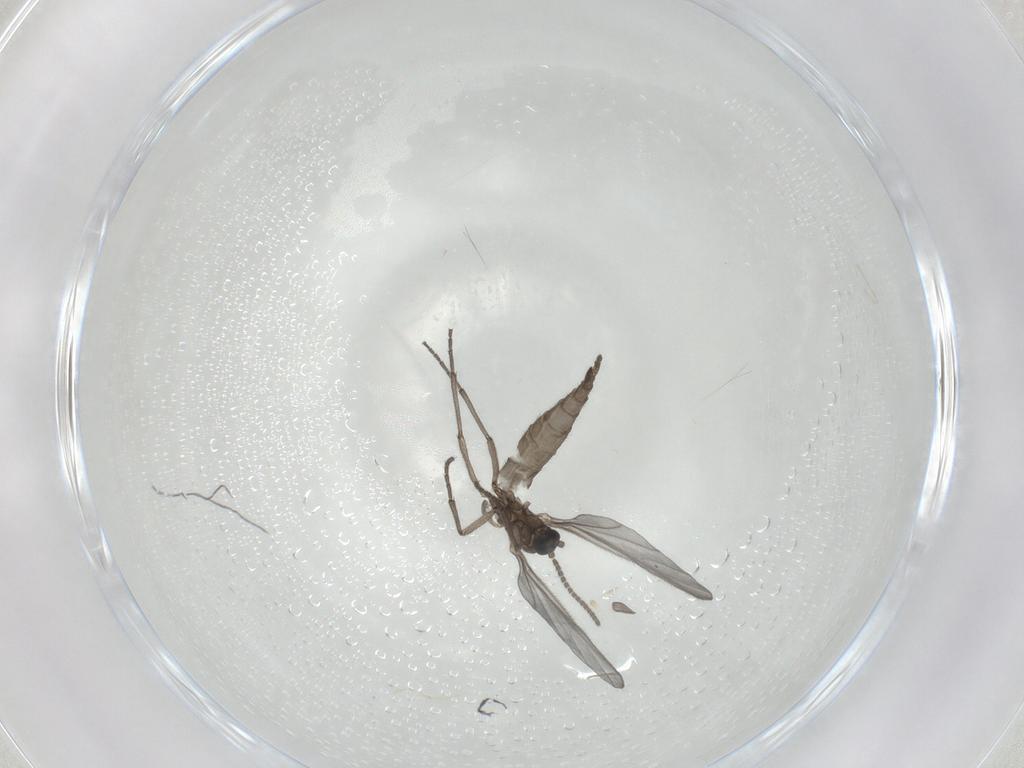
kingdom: Animalia
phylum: Arthropoda
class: Insecta
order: Diptera
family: Sciaridae
